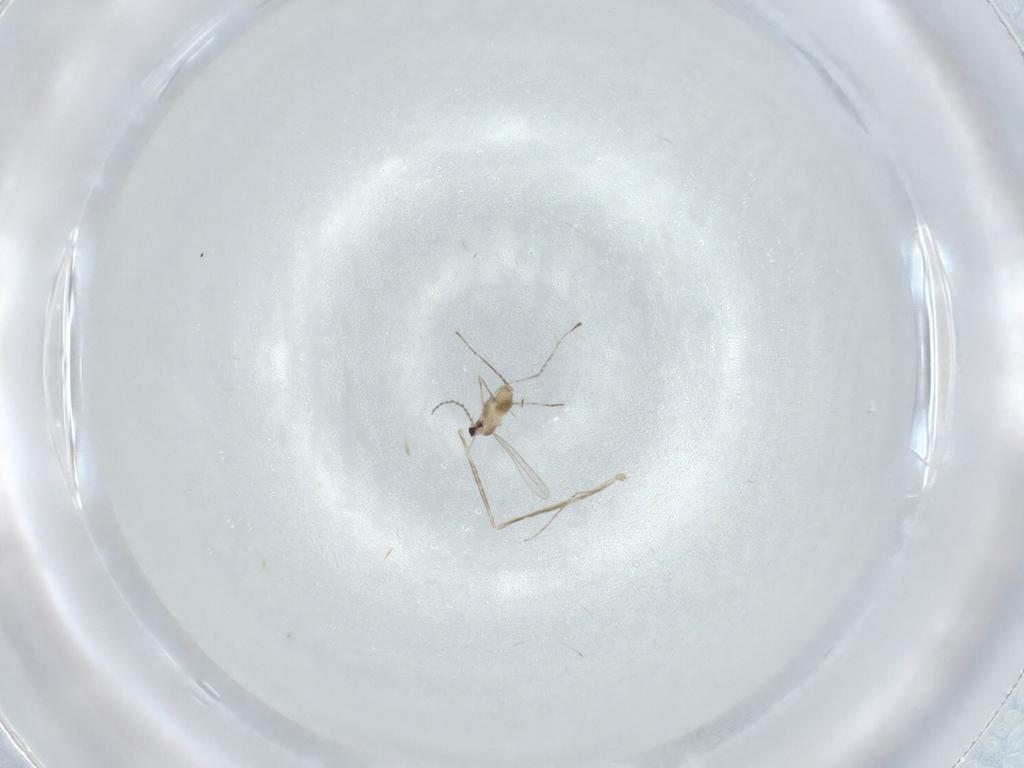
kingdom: Animalia
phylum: Arthropoda
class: Insecta
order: Diptera
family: Cecidomyiidae
